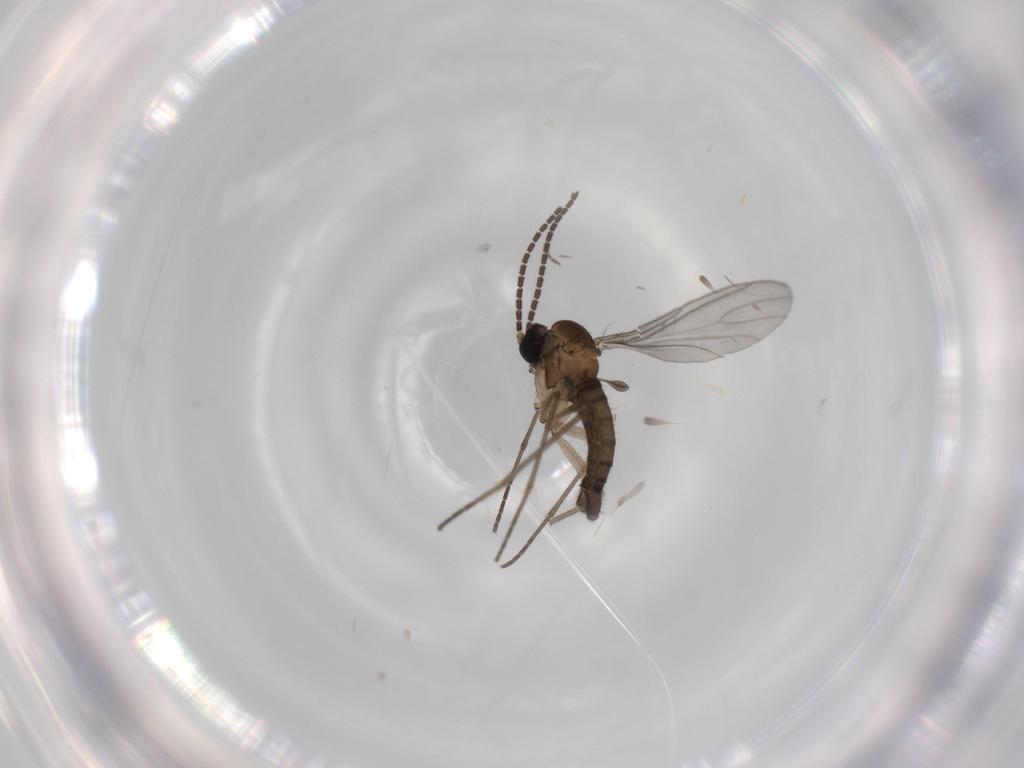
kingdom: Animalia
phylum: Arthropoda
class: Insecta
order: Diptera
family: Sciaridae
